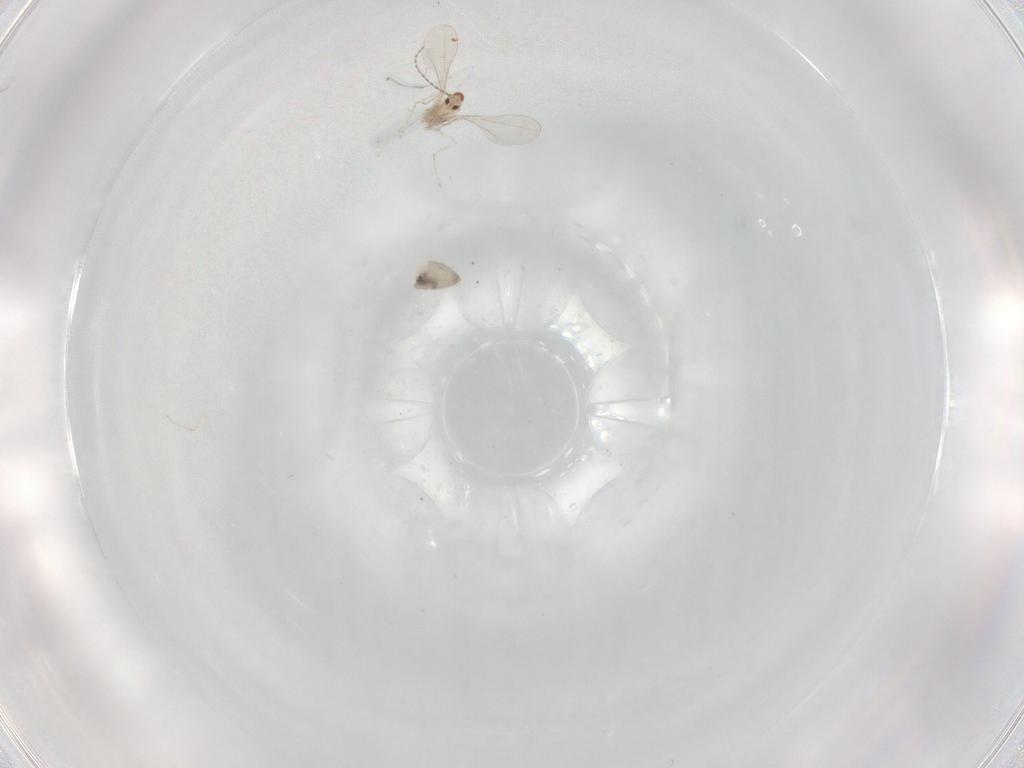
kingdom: Animalia
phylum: Arthropoda
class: Insecta
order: Diptera
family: Cecidomyiidae
